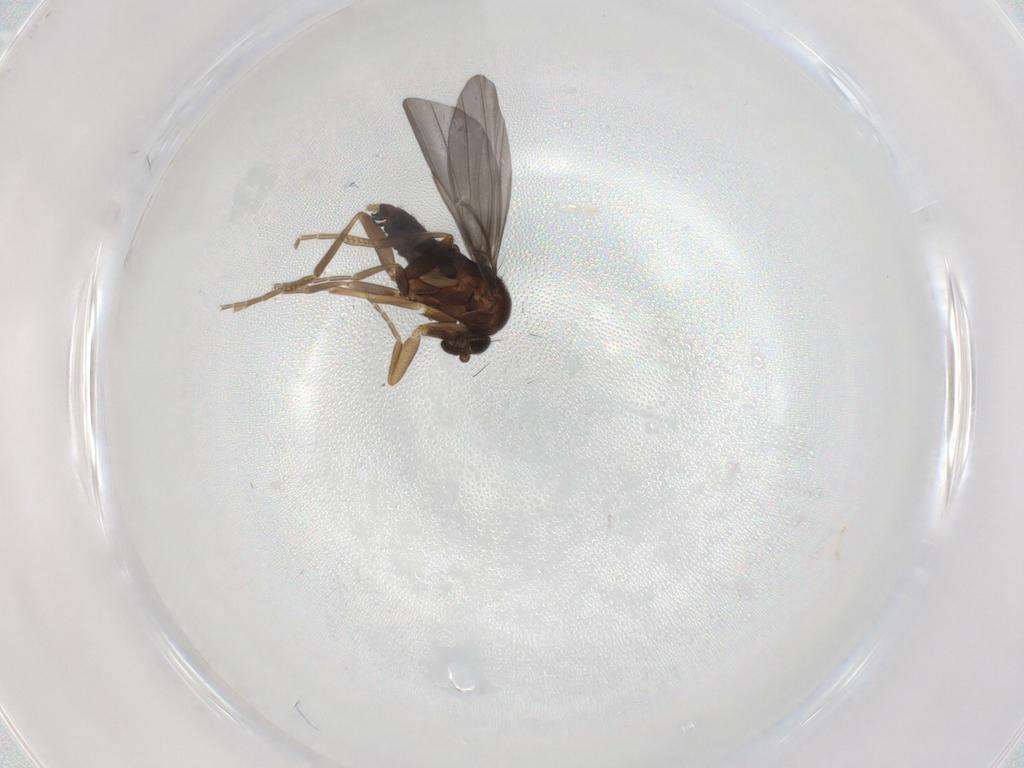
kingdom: Animalia
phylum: Arthropoda
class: Insecta
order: Diptera
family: Sciaridae
